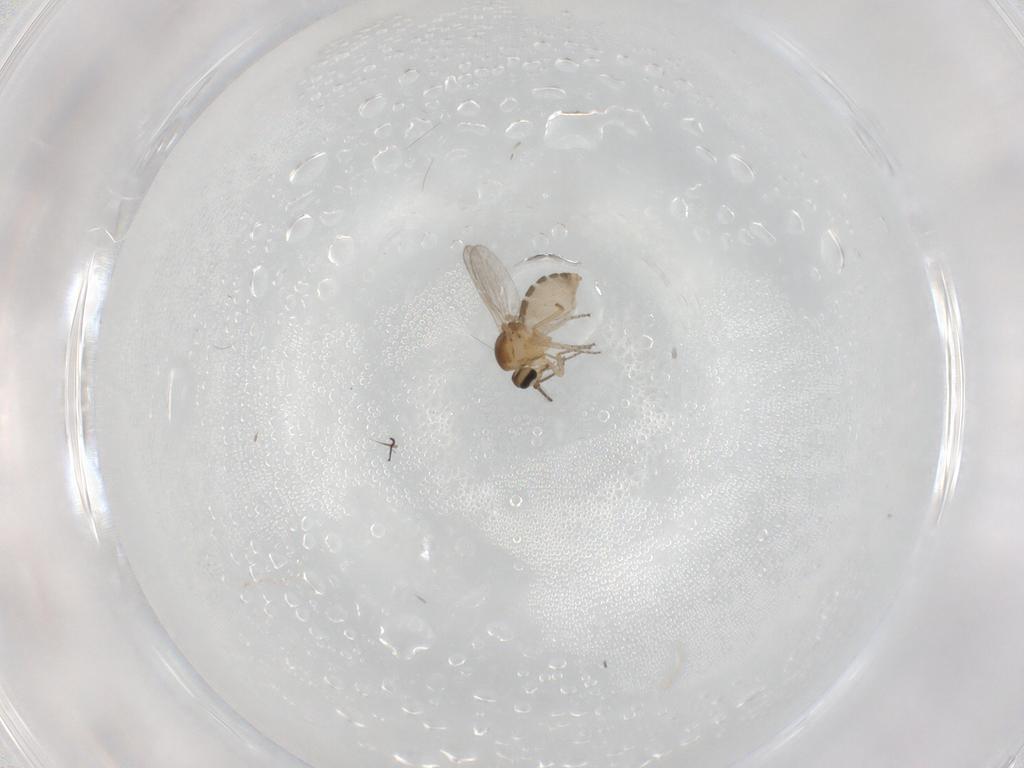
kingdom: Animalia
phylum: Arthropoda
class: Insecta
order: Diptera
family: Ceratopogonidae
